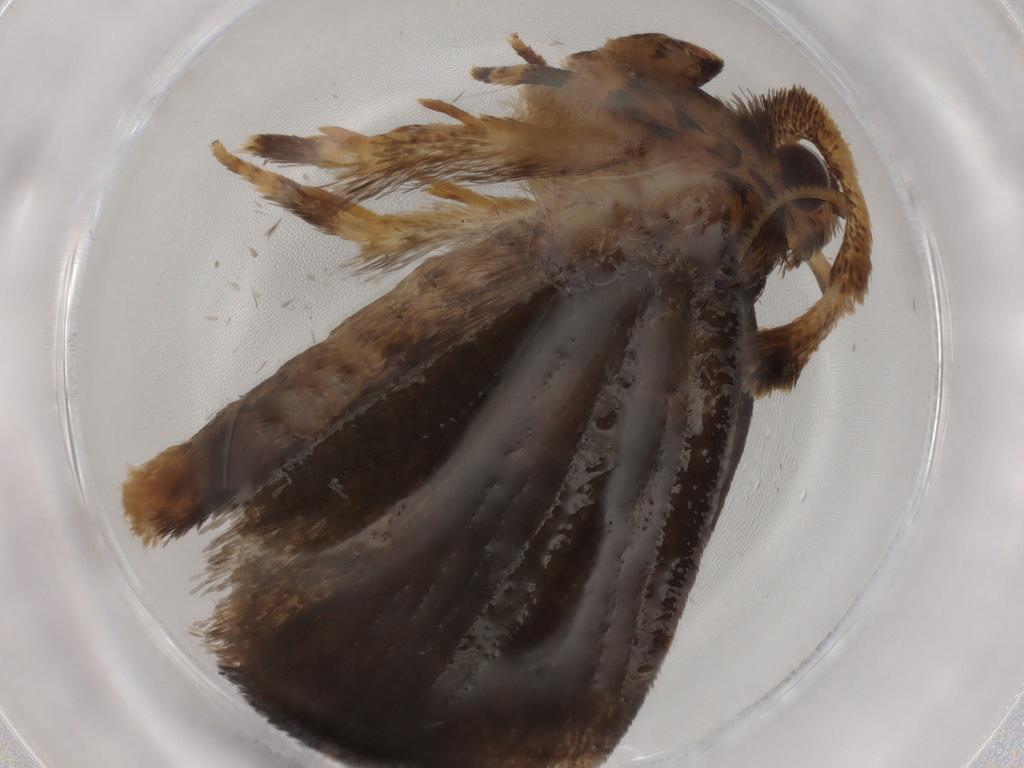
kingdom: Animalia
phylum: Arthropoda
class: Insecta
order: Lepidoptera
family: Tineidae
